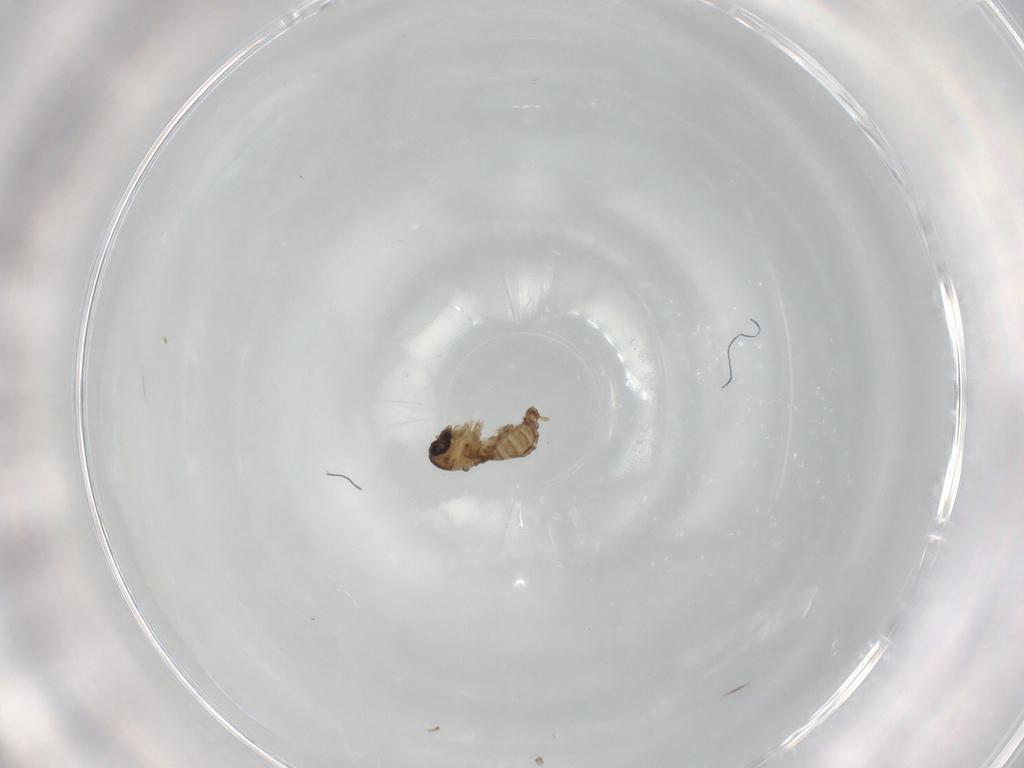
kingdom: Animalia
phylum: Arthropoda
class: Insecta
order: Diptera
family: Psychodidae
